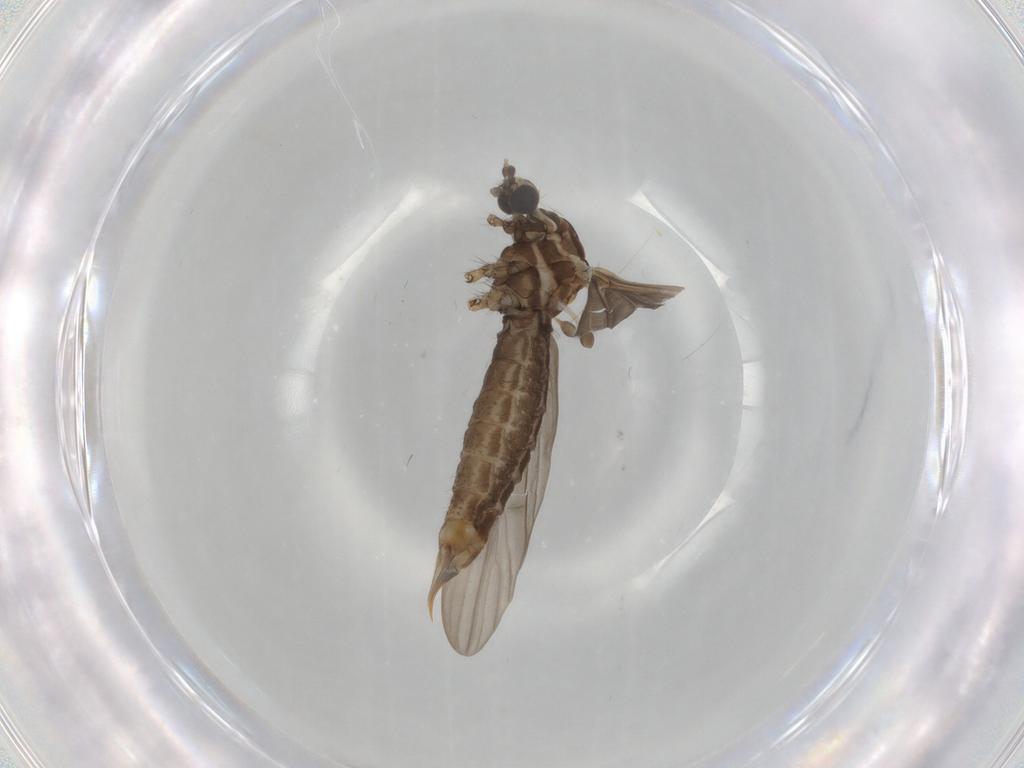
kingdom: Animalia
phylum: Arthropoda
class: Insecta
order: Diptera
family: Limoniidae
